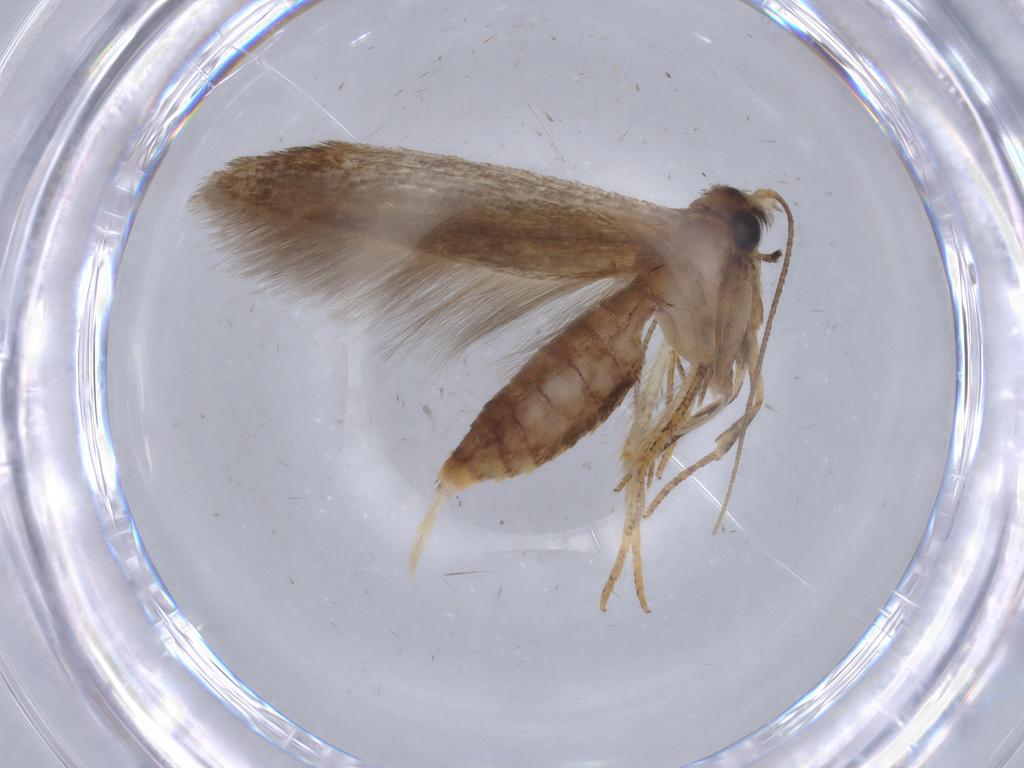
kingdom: Animalia
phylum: Arthropoda
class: Insecta
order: Lepidoptera
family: Blastobasidae
